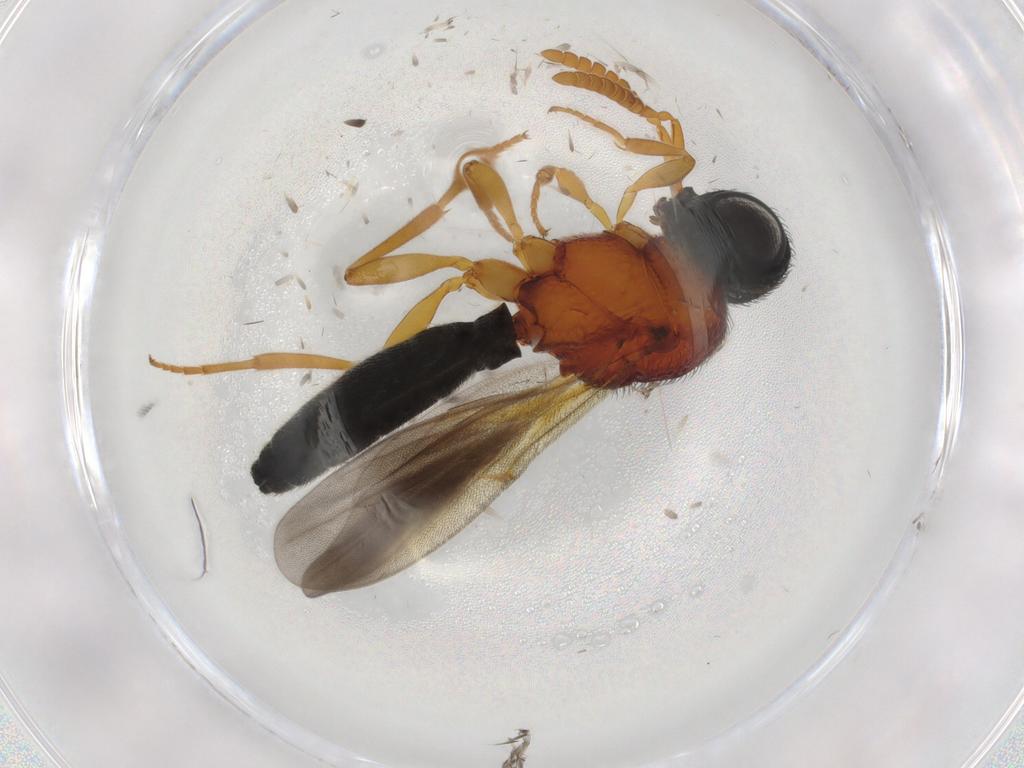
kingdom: Animalia
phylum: Arthropoda
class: Insecta
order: Hymenoptera
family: Scelionidae
